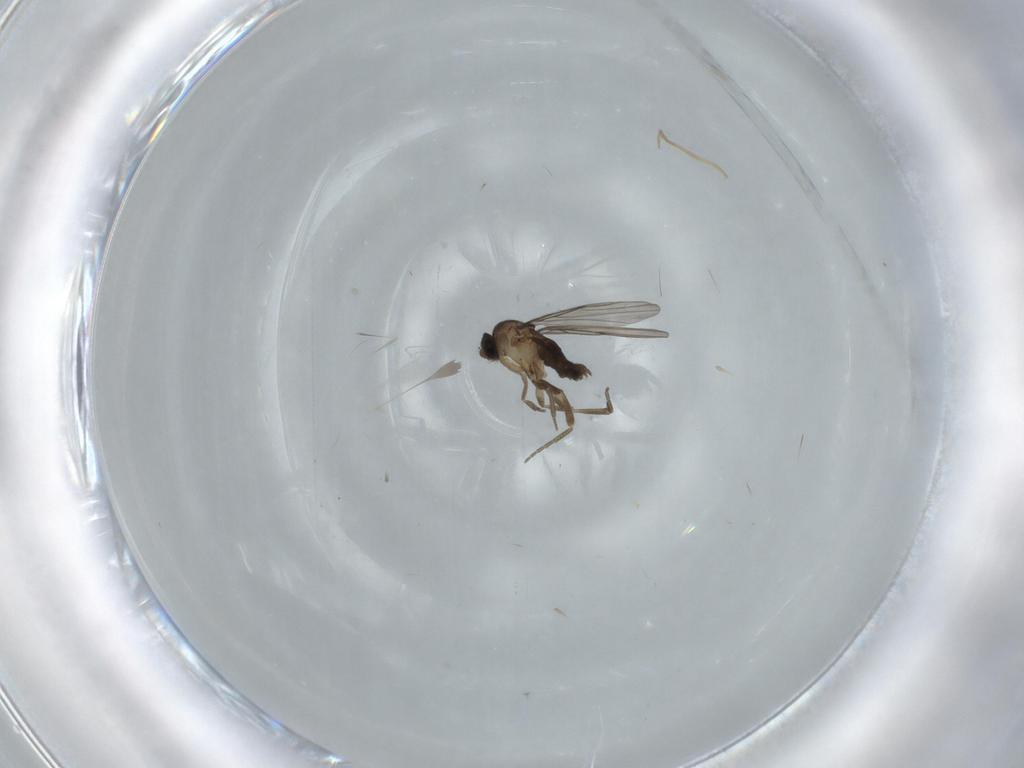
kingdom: Animalia
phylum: Arthropoda
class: Insecta
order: Diptera
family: Phoridae
